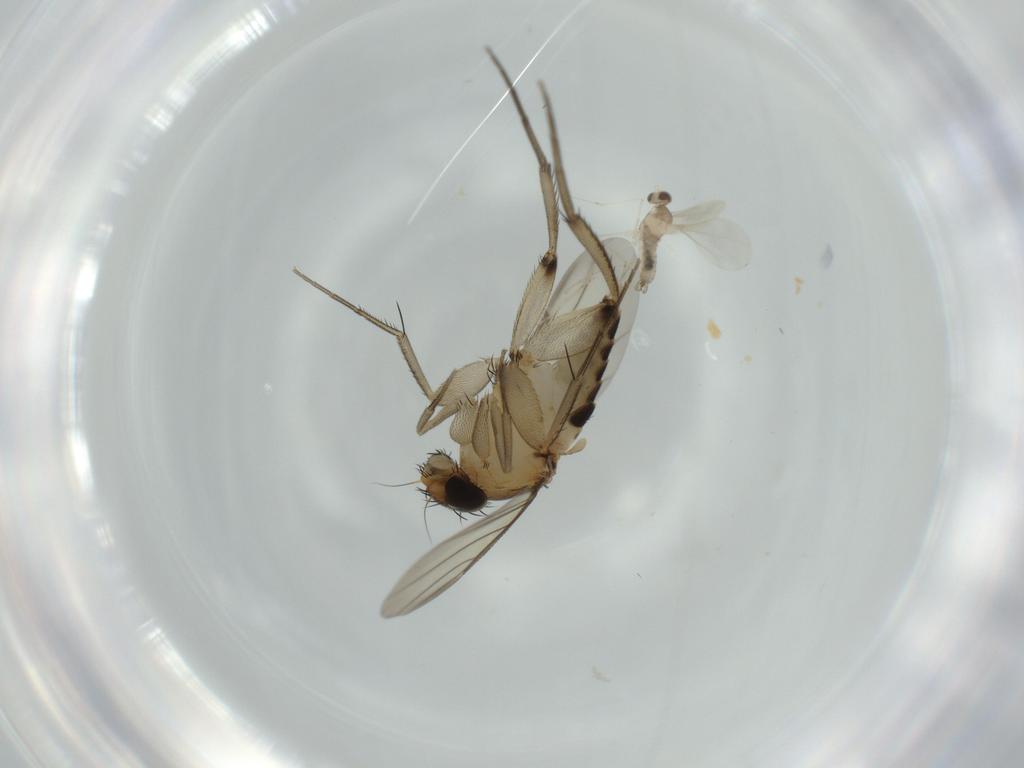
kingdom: Animalia
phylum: Arthropoda
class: Insecta
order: Diptera
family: Phoridae
